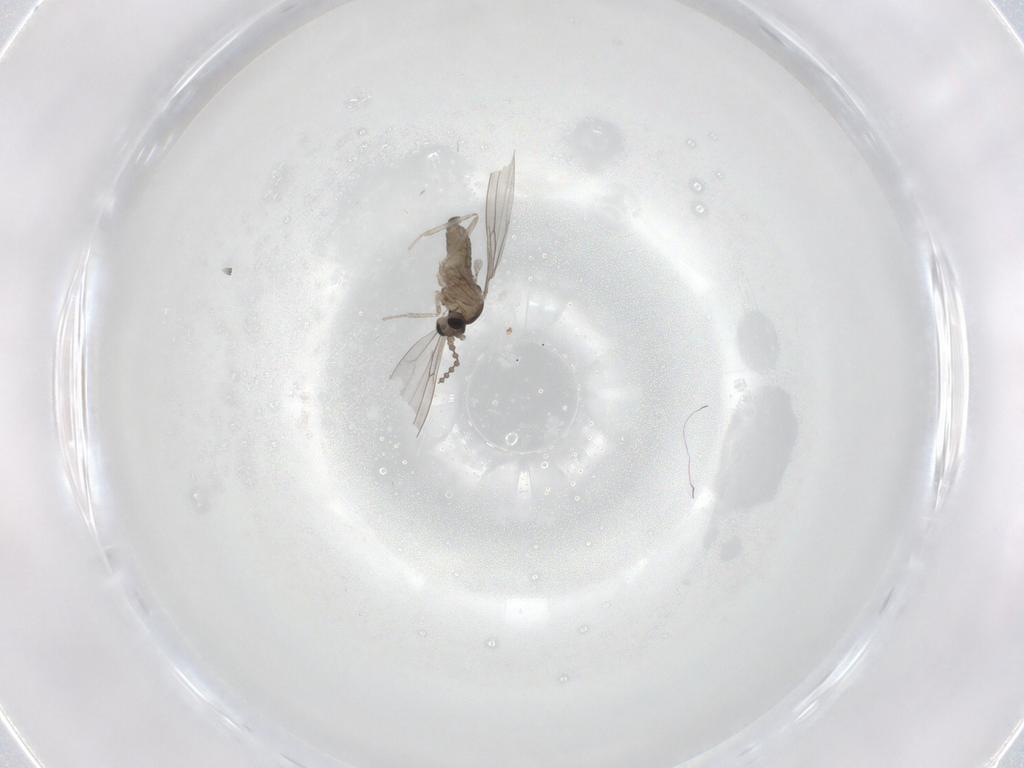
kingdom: Animalia
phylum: Arthropoda
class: Insecta
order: Diptera
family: Cecidomyiidae
